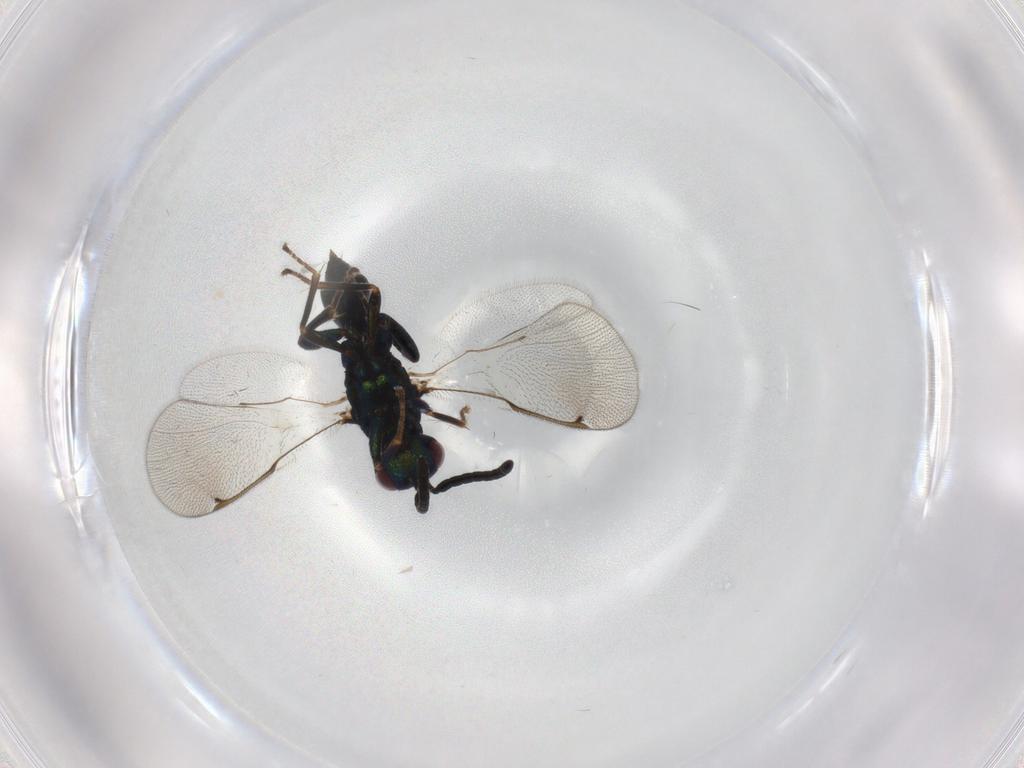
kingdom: Animalia
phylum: Arthropoda
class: Insecta
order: Hymenoptera
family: Torymidae
